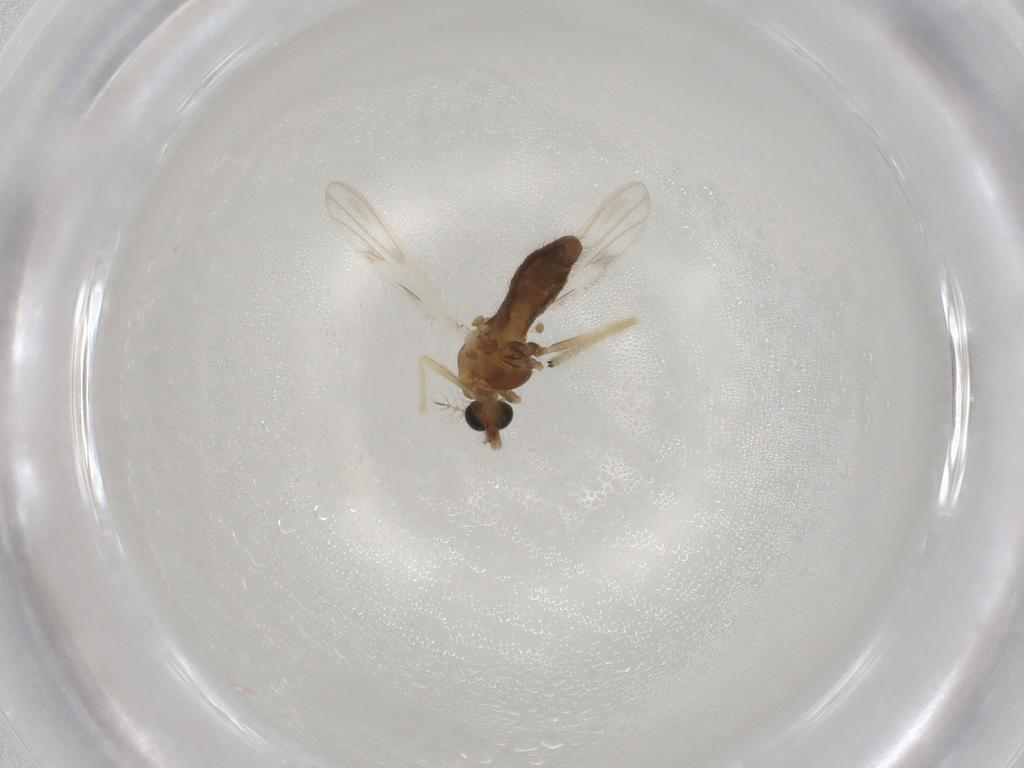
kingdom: Animalia
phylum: Arthropoda
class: Insecta
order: Diptera
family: Chironomidae
